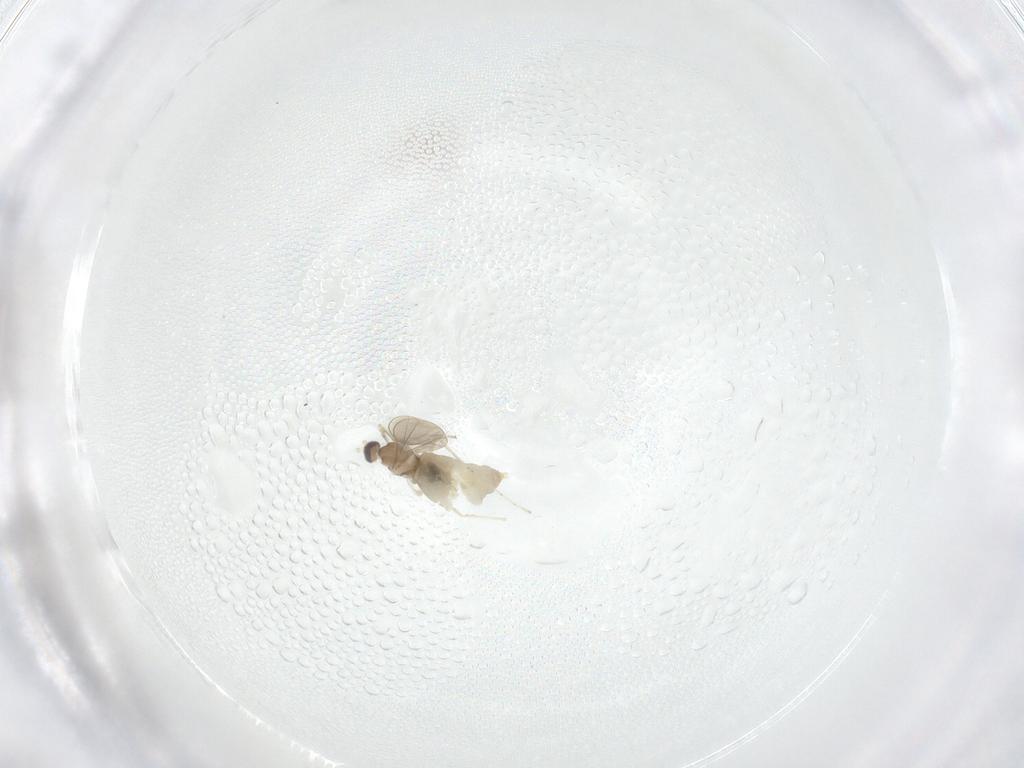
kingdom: Animalia
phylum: Arthropoda
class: Insecta
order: Diptera
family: Cecidomyiidae
